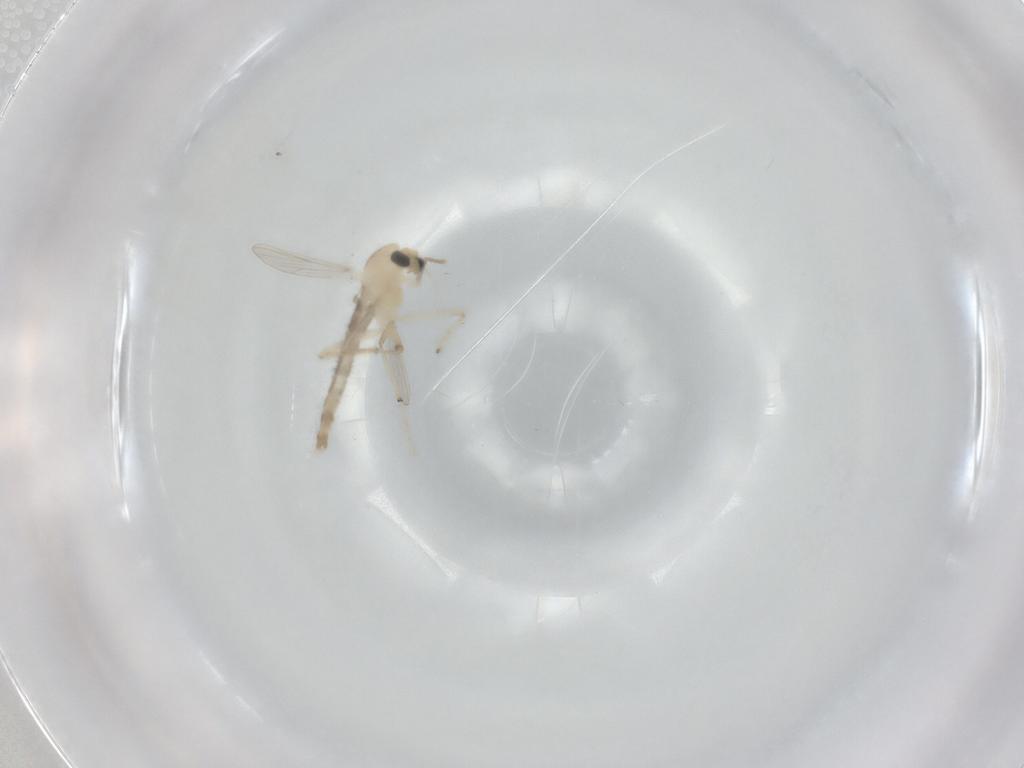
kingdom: Animalia
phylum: Arthropoda
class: Insecta
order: Diptera
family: Chironomidae
